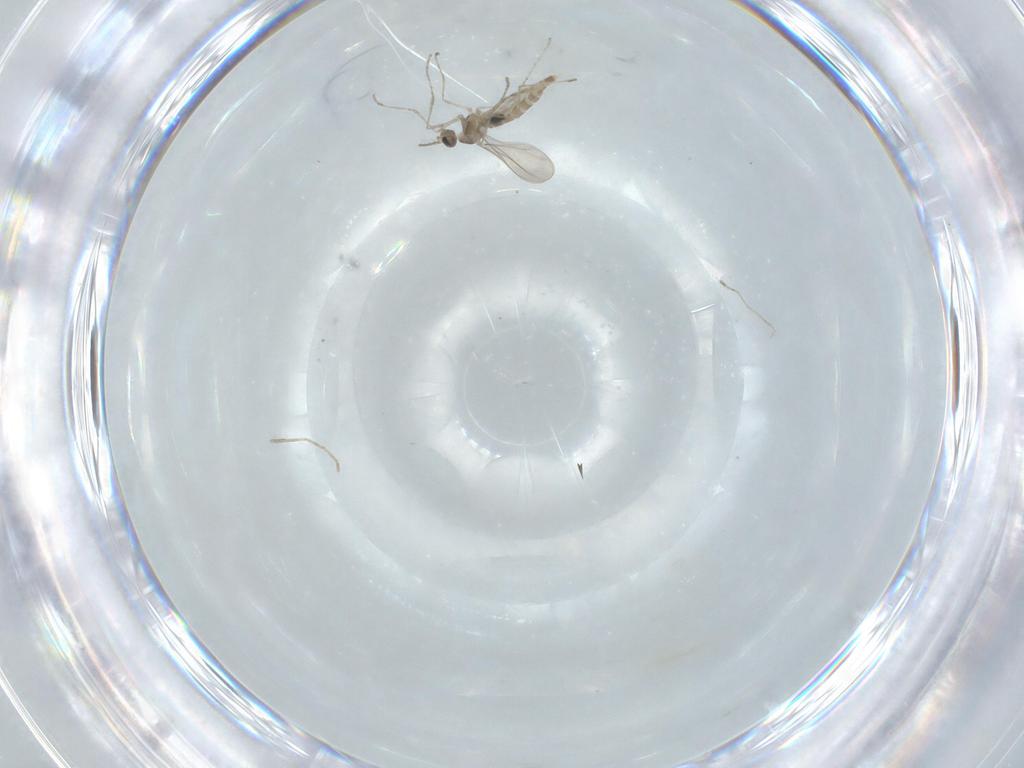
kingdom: Animalia
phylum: Arthropoda
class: Insecta
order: Diptera
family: Cecidomyiidae
